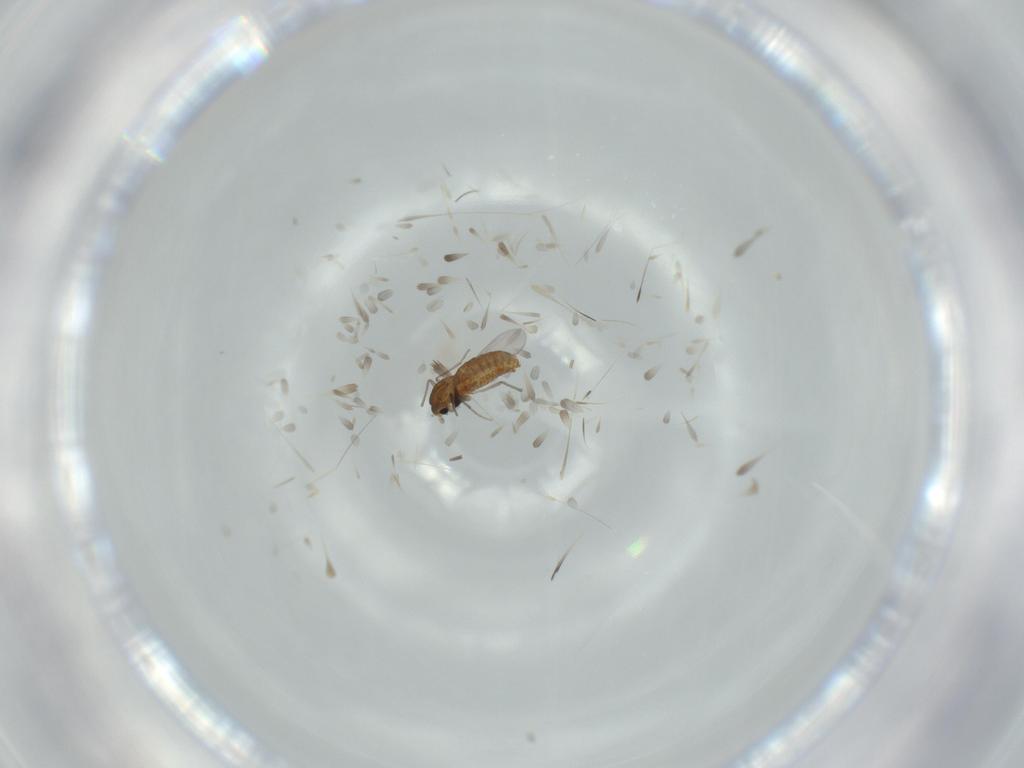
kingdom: Animalia
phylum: Arthropoda
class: Insecta
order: Diptera
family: Chironomidae
